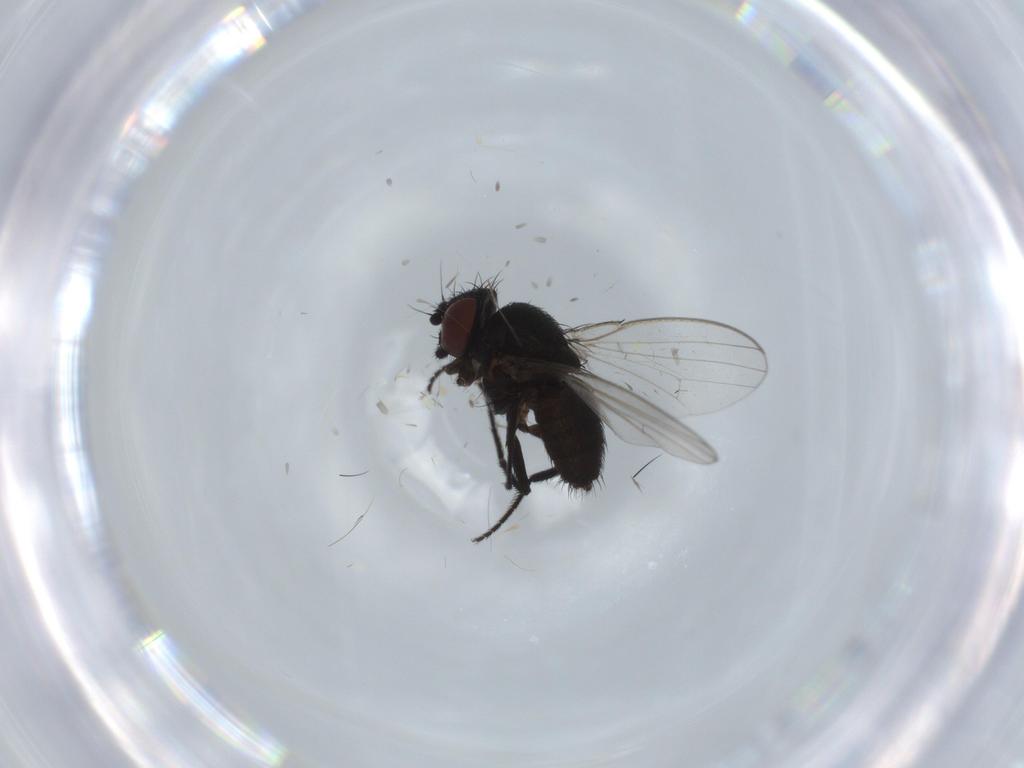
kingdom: Animalia
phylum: Arthropoda
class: Insecta
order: Diptera
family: Milichiidae
